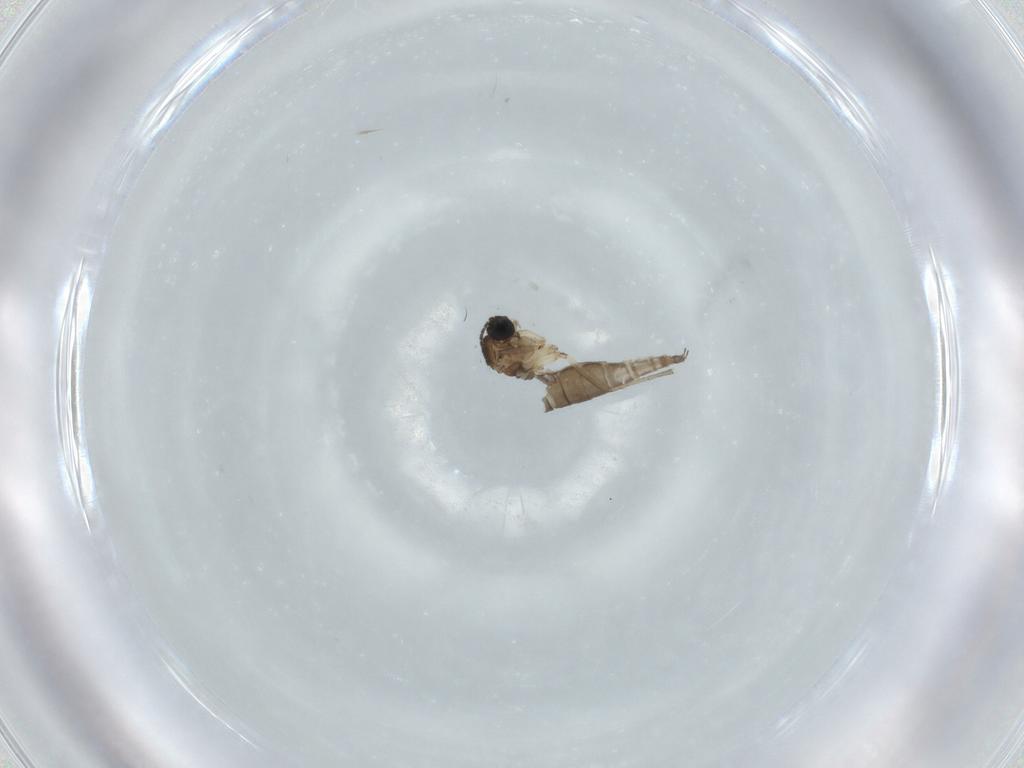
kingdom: Animalia
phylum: Arthropoda
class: Insecta
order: Diptera
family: Sciaridae
